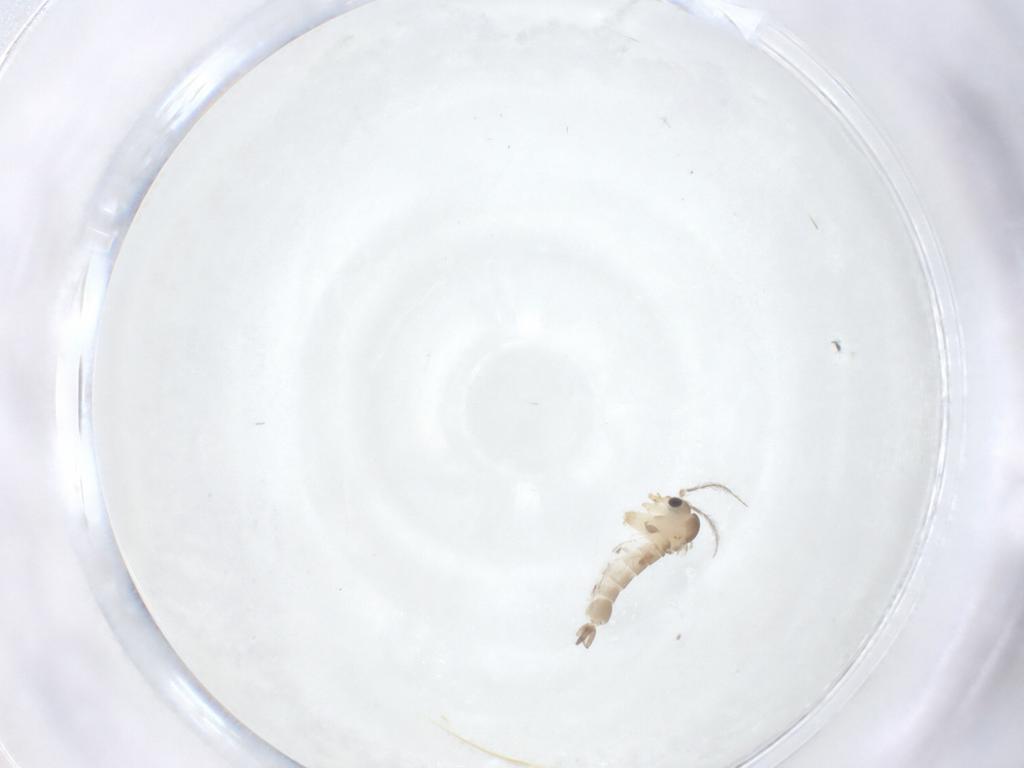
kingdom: Animalia
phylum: Arthropoda
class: Insecta
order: Diptera
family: Psychodidae
